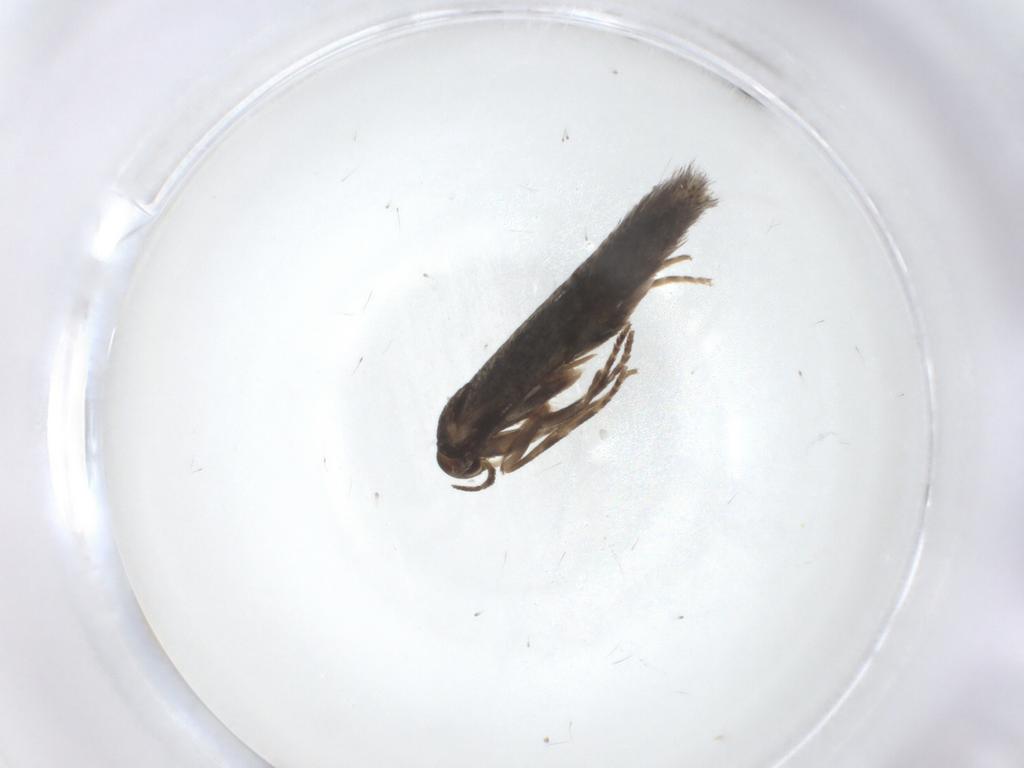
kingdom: Animalia
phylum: Arthropoda
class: Insecta
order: Lepidoptera
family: Elachistidae
